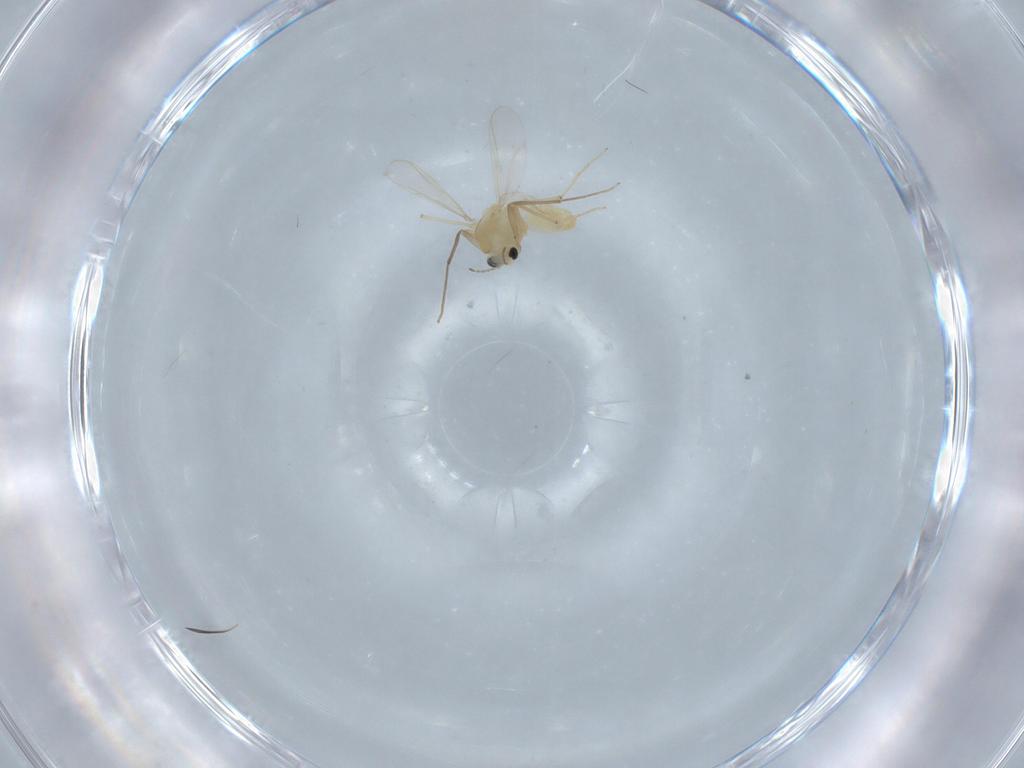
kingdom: Animalia
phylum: Arthropoda
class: Insecta
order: Diptera
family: Chironomidae
